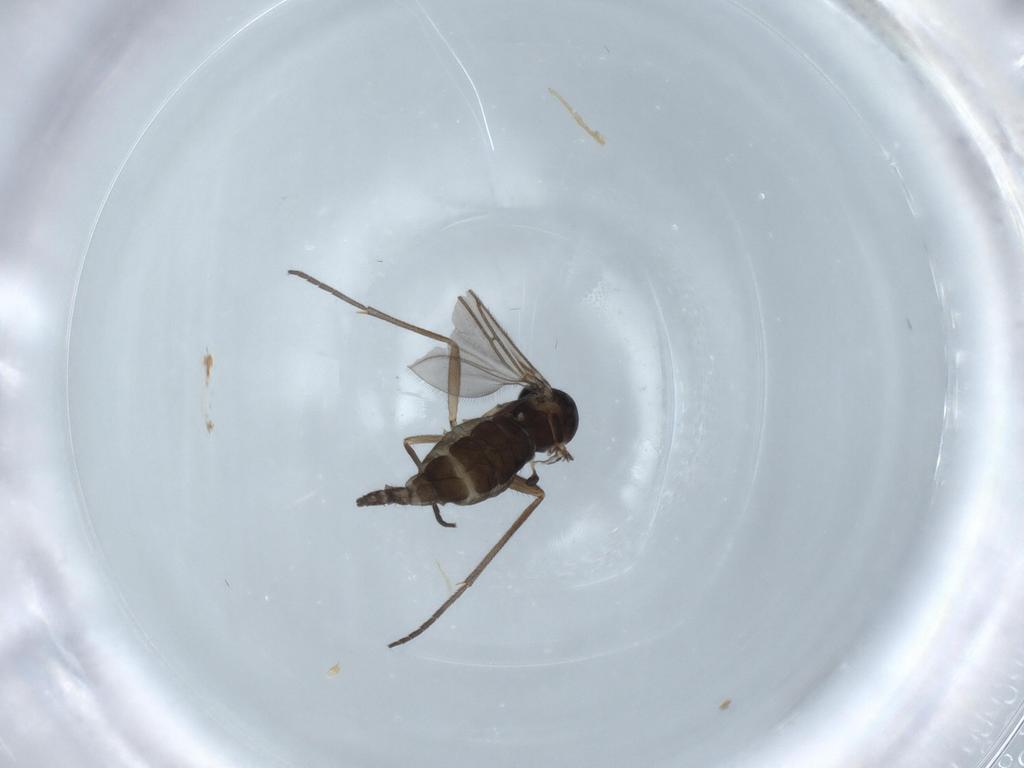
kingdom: Animalia
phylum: Arthropoda
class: Insecta
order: Diptera
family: Sciaridae
